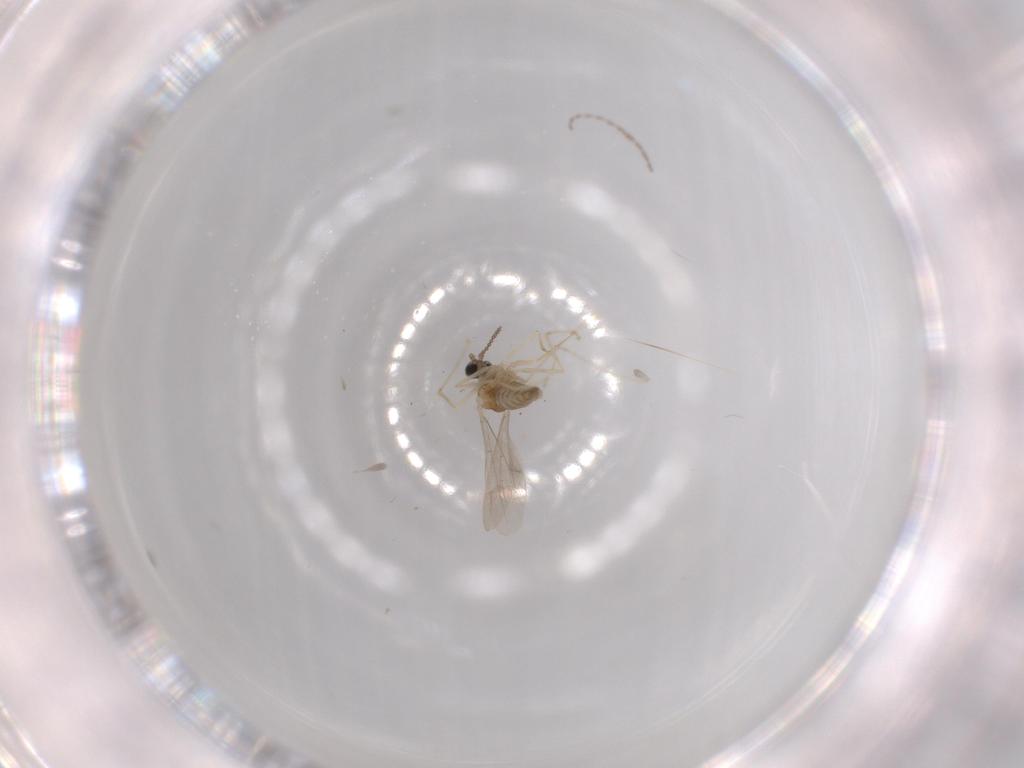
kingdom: Animalia
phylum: Arthropoda
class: Insecta
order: Diptera
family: Cecidomyiidae
